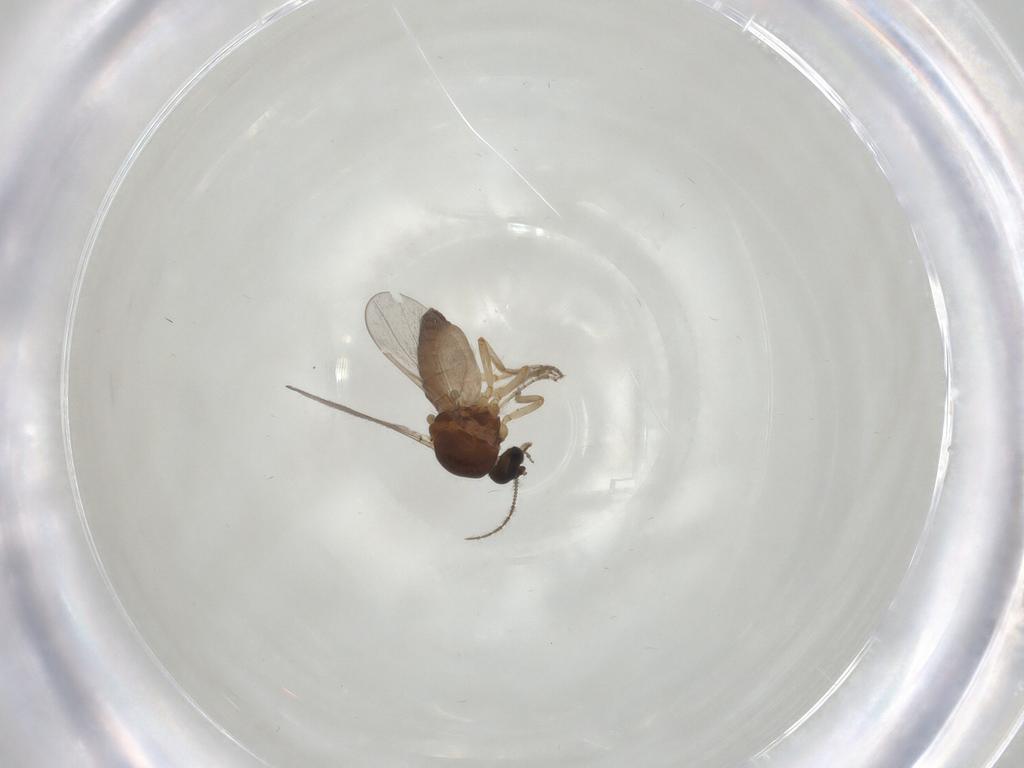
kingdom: Animalia
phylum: Arthropoda
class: Insecta
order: Diptera
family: Ceratopogonidae
